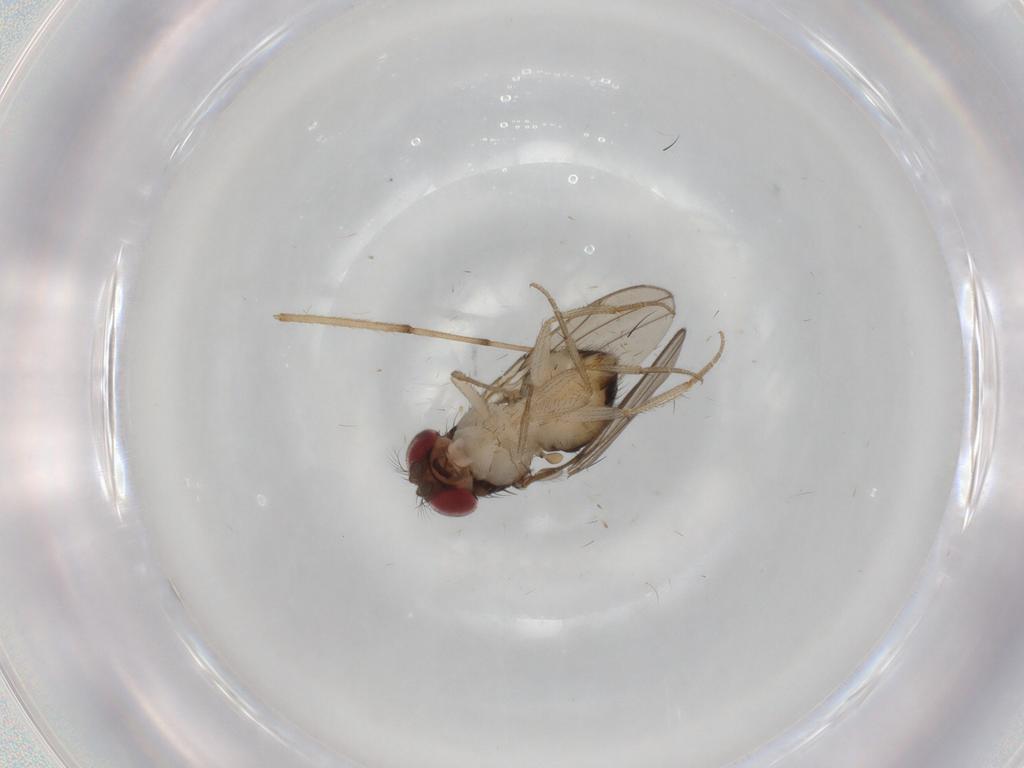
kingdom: Animalia
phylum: Arthropoda
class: Insecta
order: Diptera
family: Drosophilidae
